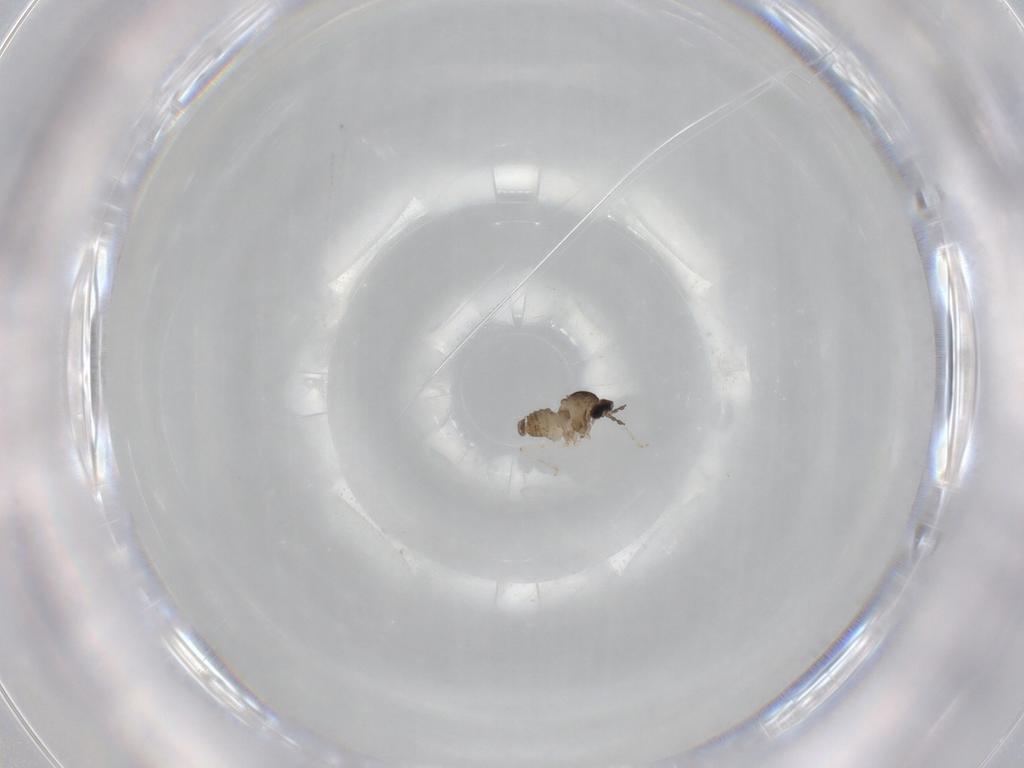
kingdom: Animalia
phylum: Arthropoda
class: Insecta
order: Diptera
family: Cecidomyiidae
